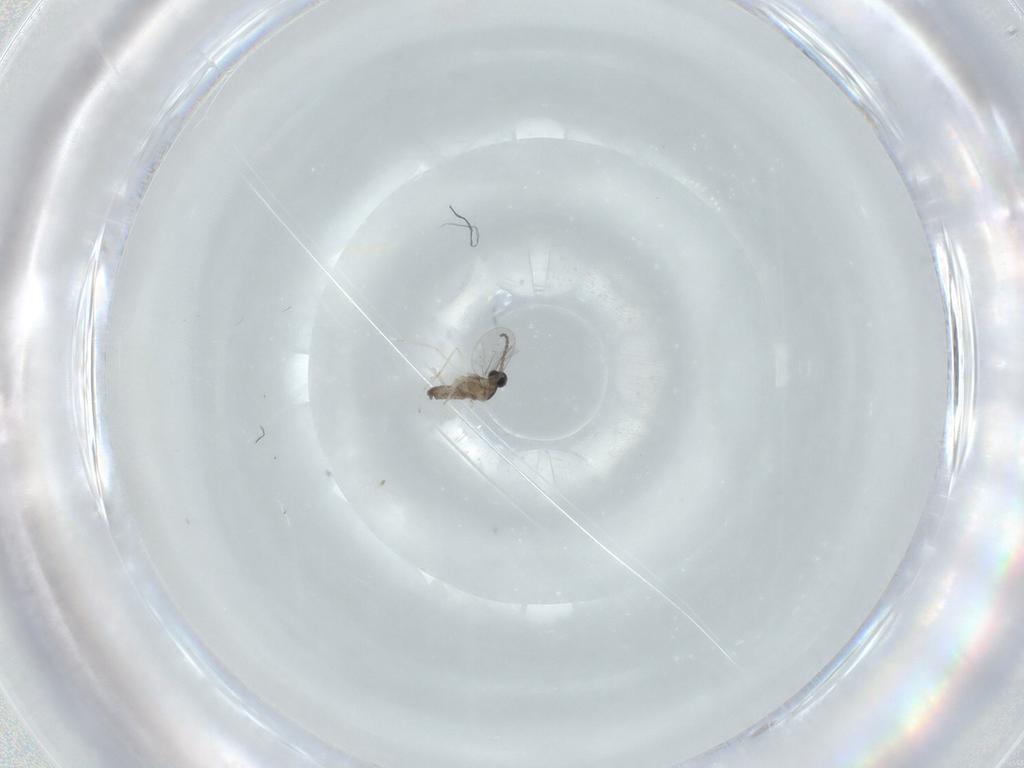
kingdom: Animalia
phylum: Arthropoda
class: Insecta
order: Diptera
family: Cecidomyiidae
